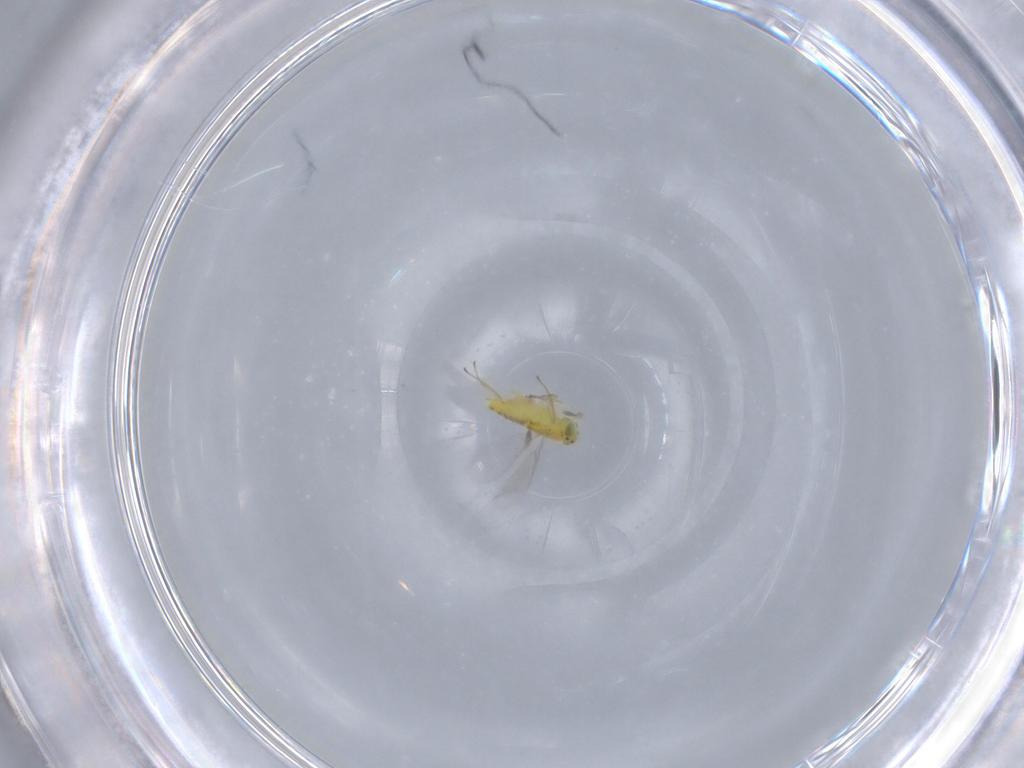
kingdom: Animalia
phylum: Arthropoda
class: Insecta
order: Hymenoptera
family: Aphelinidae
